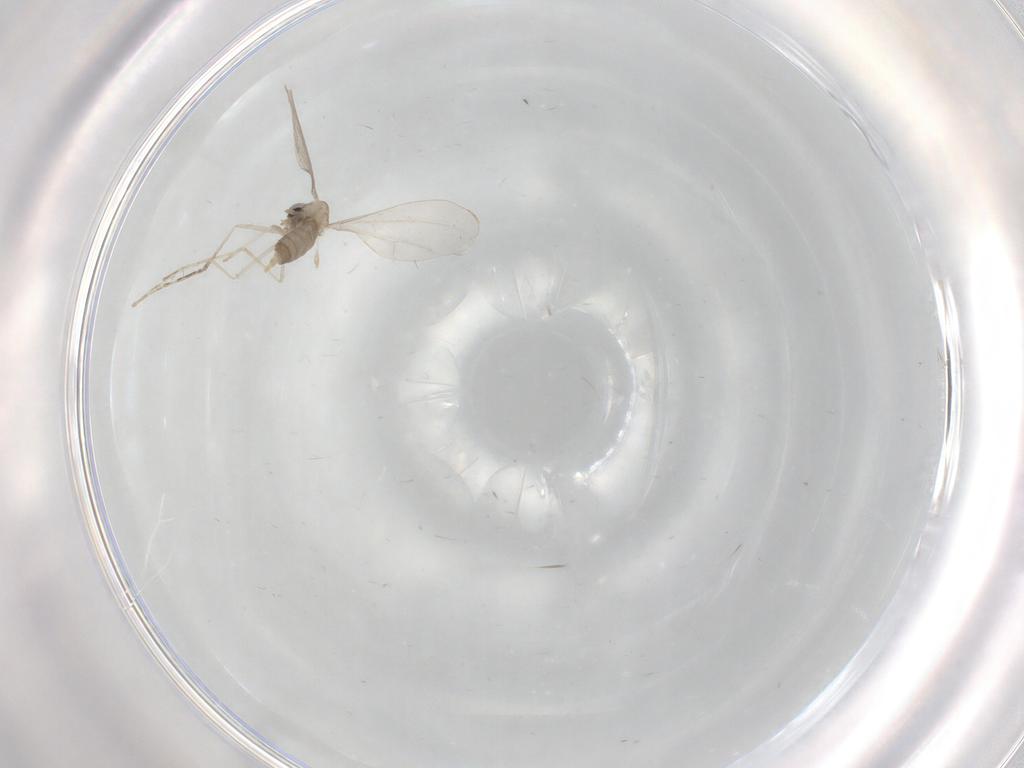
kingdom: Animalia
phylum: Arthropoda
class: Insecta
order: Diptera
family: Cecidomyiidae
